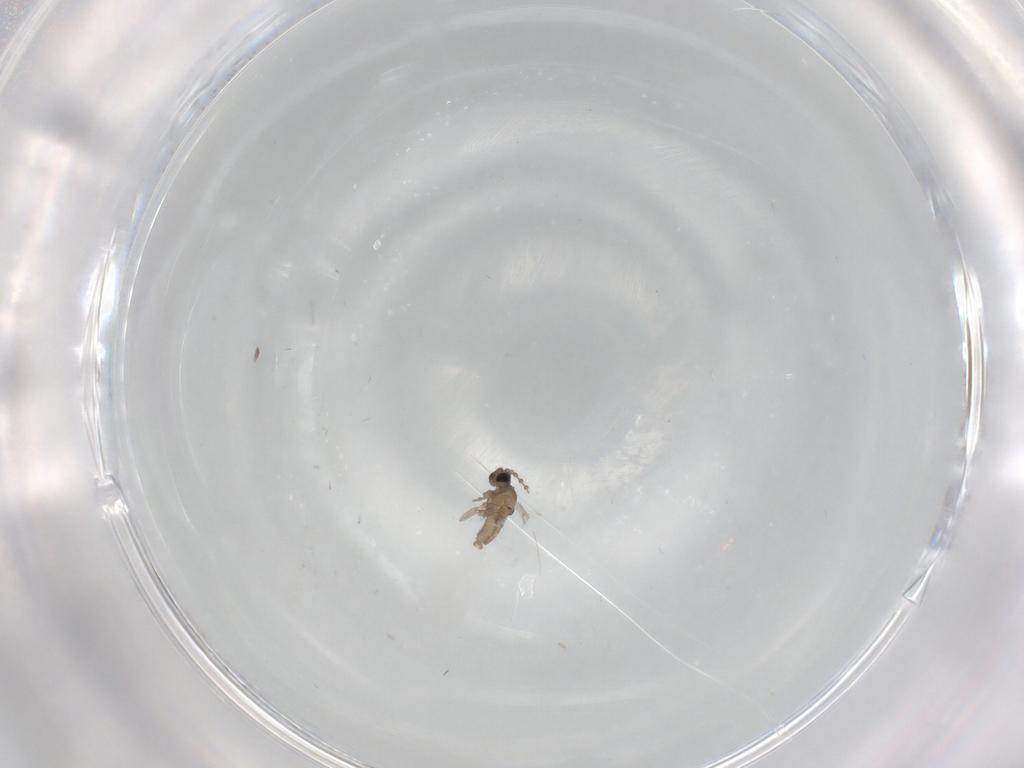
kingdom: Animalia
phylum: Arthropoda
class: Insecta
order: Diptera
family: Cecidomyiidae
